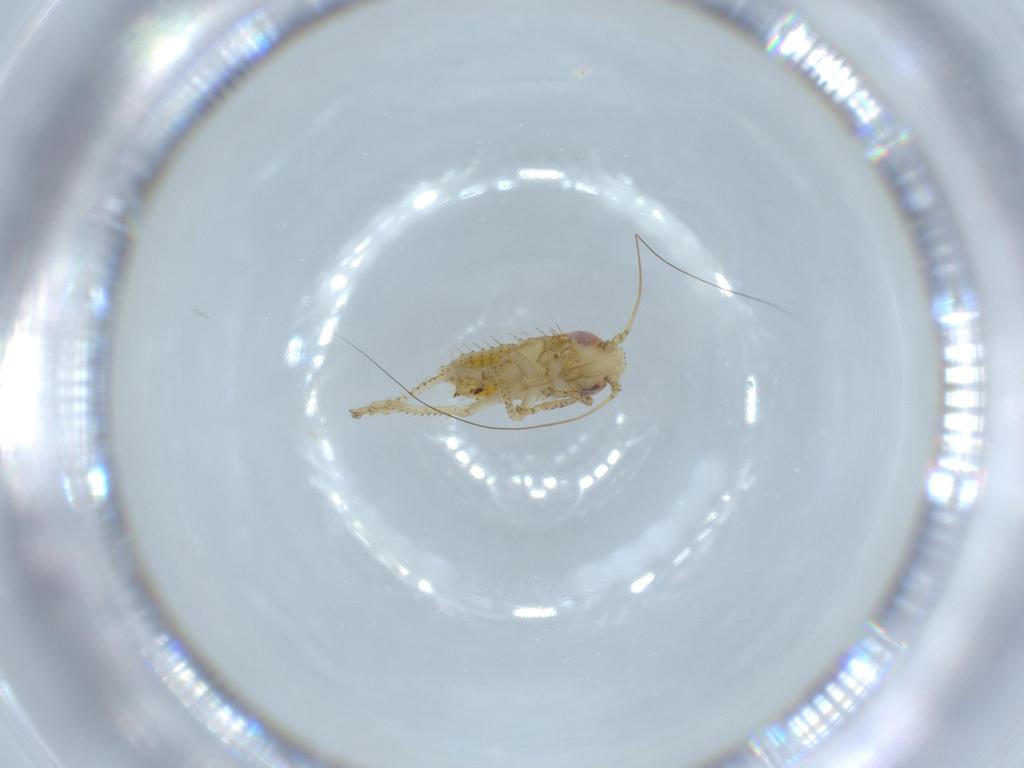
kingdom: Animalia
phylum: Arthropoda
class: Insecta
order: Hemiptera
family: Cicadellidae
